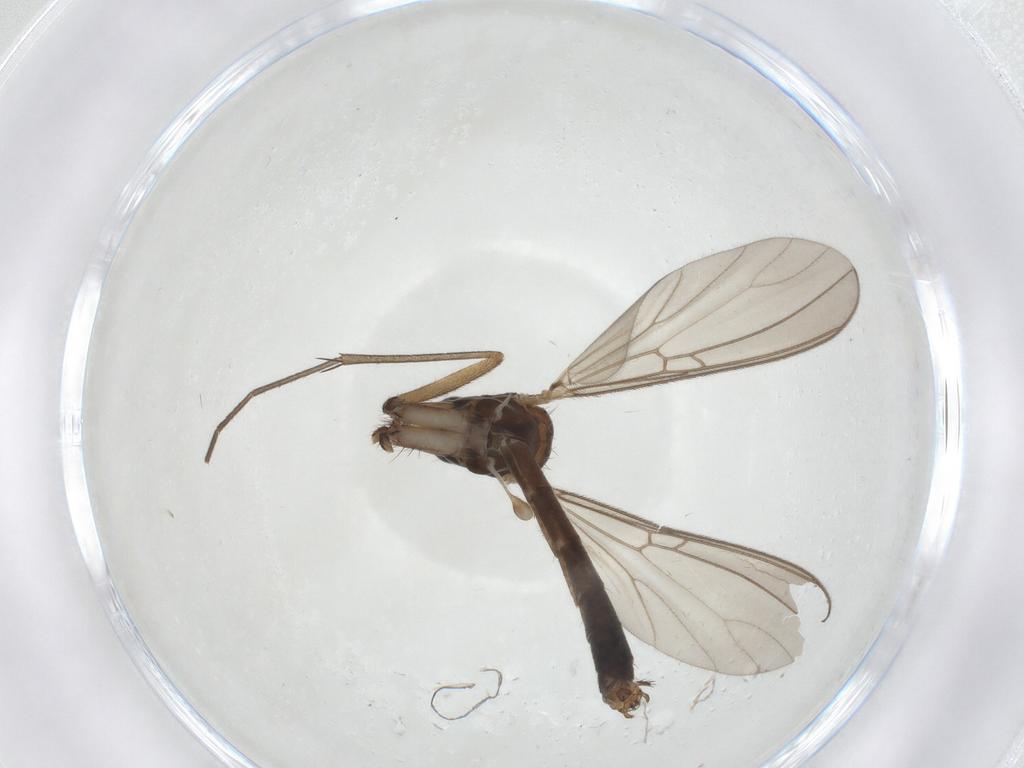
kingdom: Animalia
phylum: Arthropoda
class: Insecta
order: Diptera
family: Mycetophilidae
